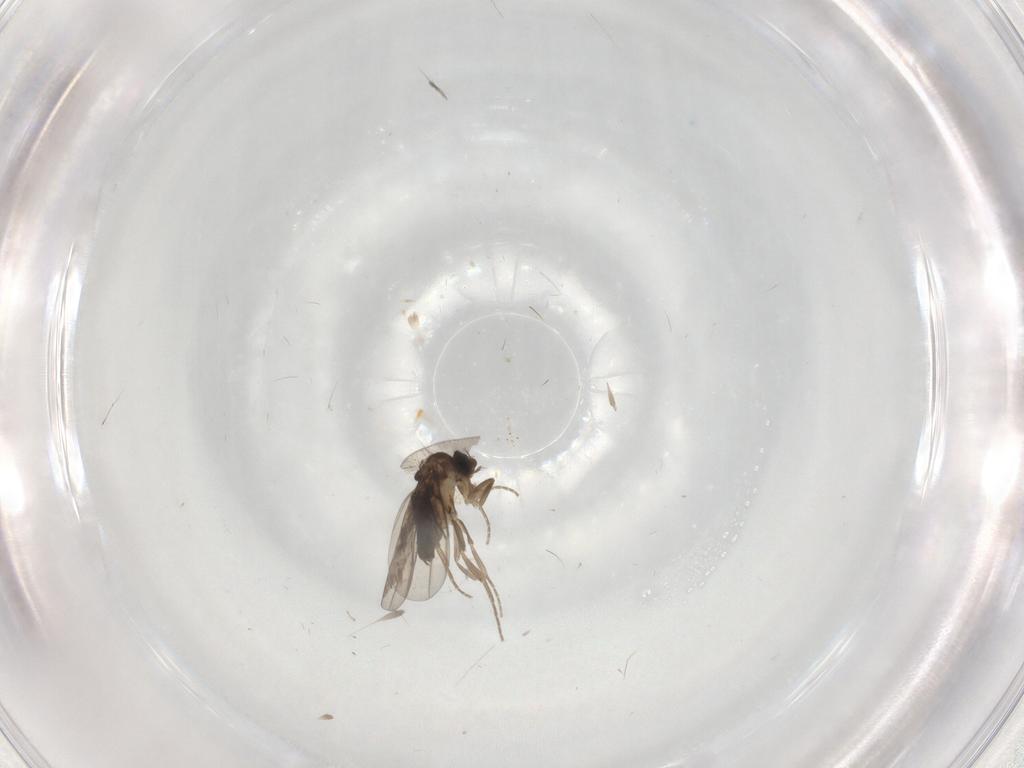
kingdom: Animalia
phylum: Arthropoda
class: Insecta
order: Diptera
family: Phoridae
